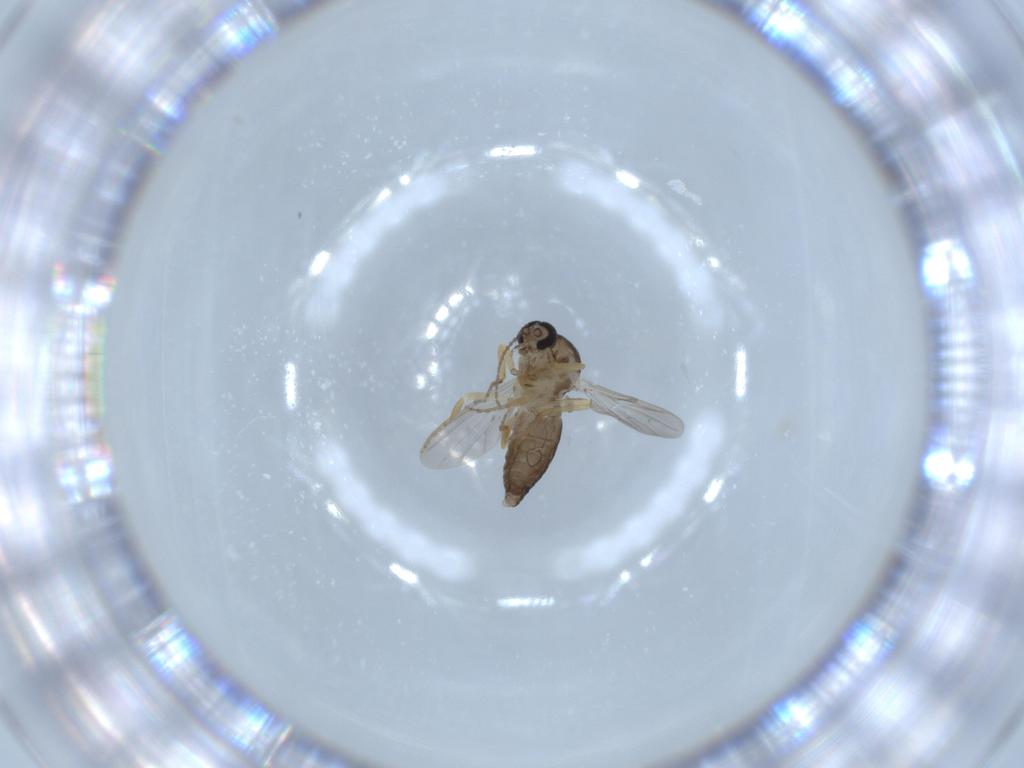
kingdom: Animalia
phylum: Arthropoda
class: Insecta
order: Diptera
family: Ceratopogonidae
